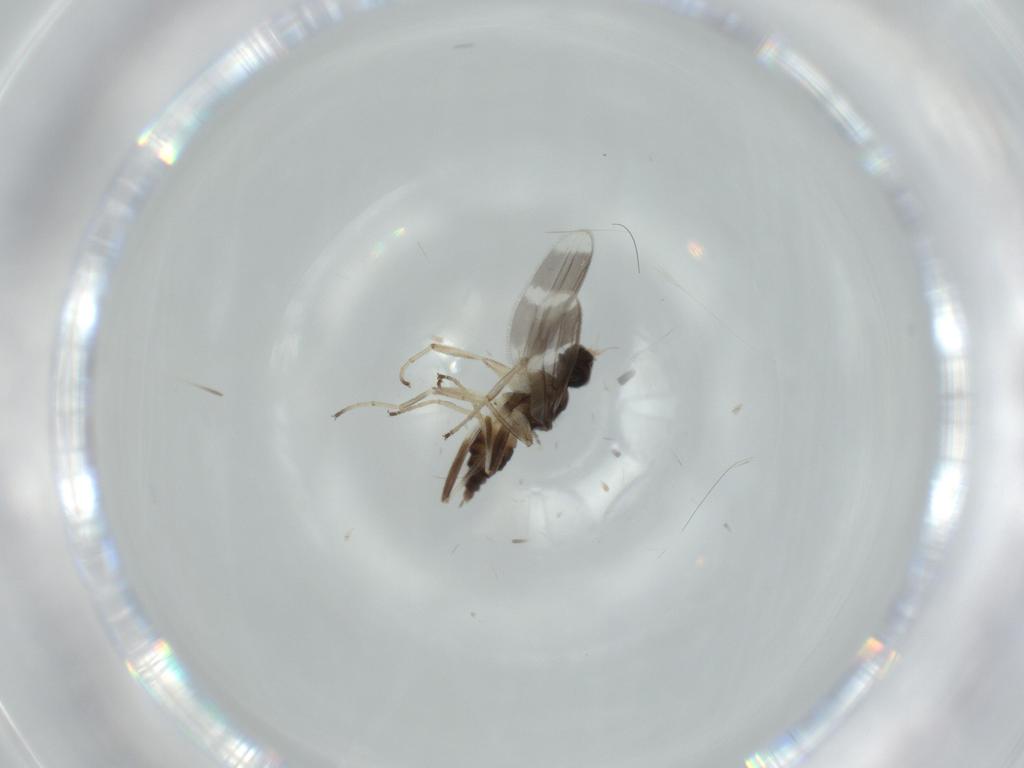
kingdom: Animalia
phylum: Arthropoda
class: Insecta
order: Diptera
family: Hybotidae
